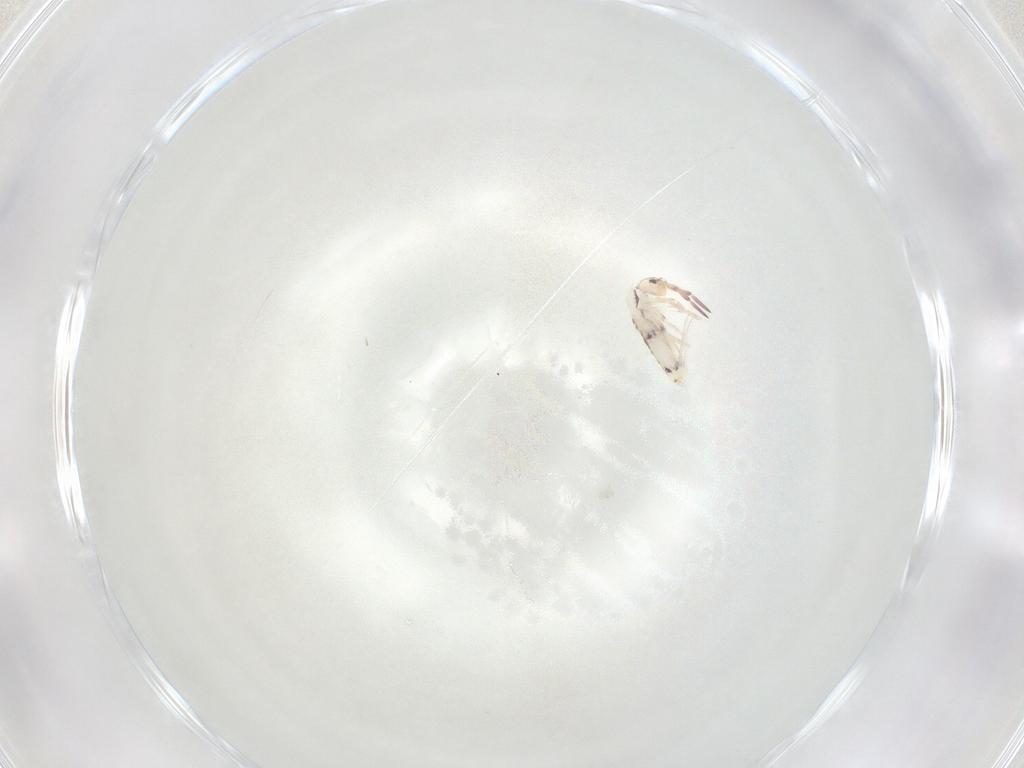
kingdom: Animalia
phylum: Arthropoda
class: Collembola
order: Entomobryomorpha
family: Entomobryidae
